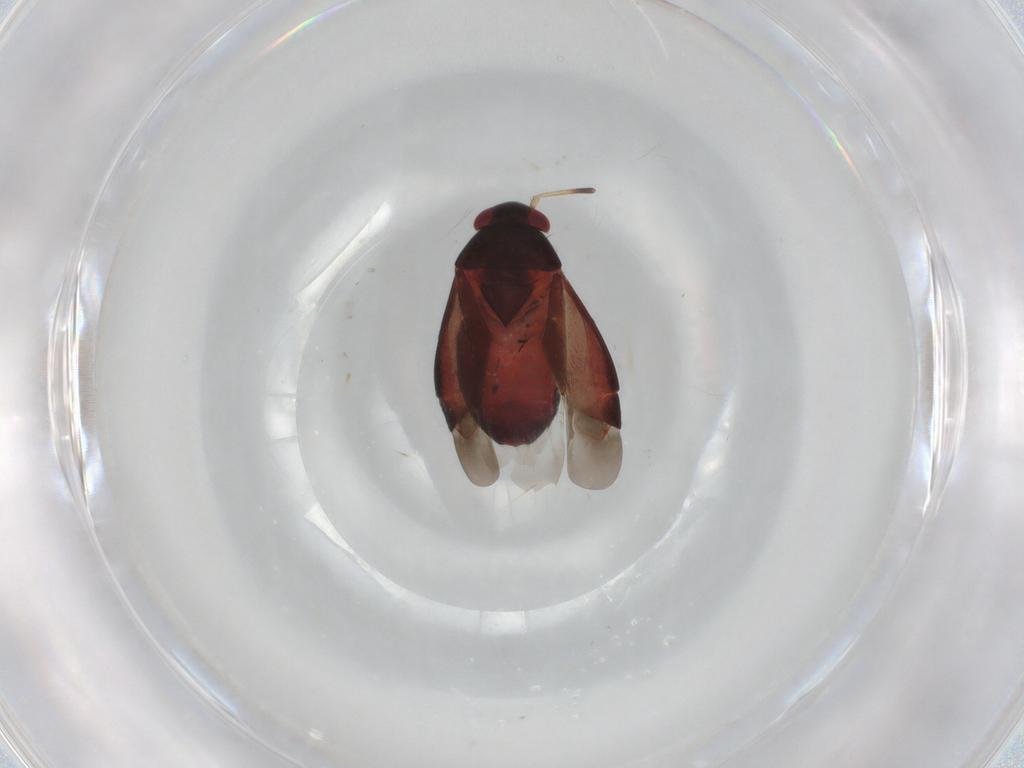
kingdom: Animalia
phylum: Arthropoda
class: Insecta
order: Hemiptera
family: Miridae
